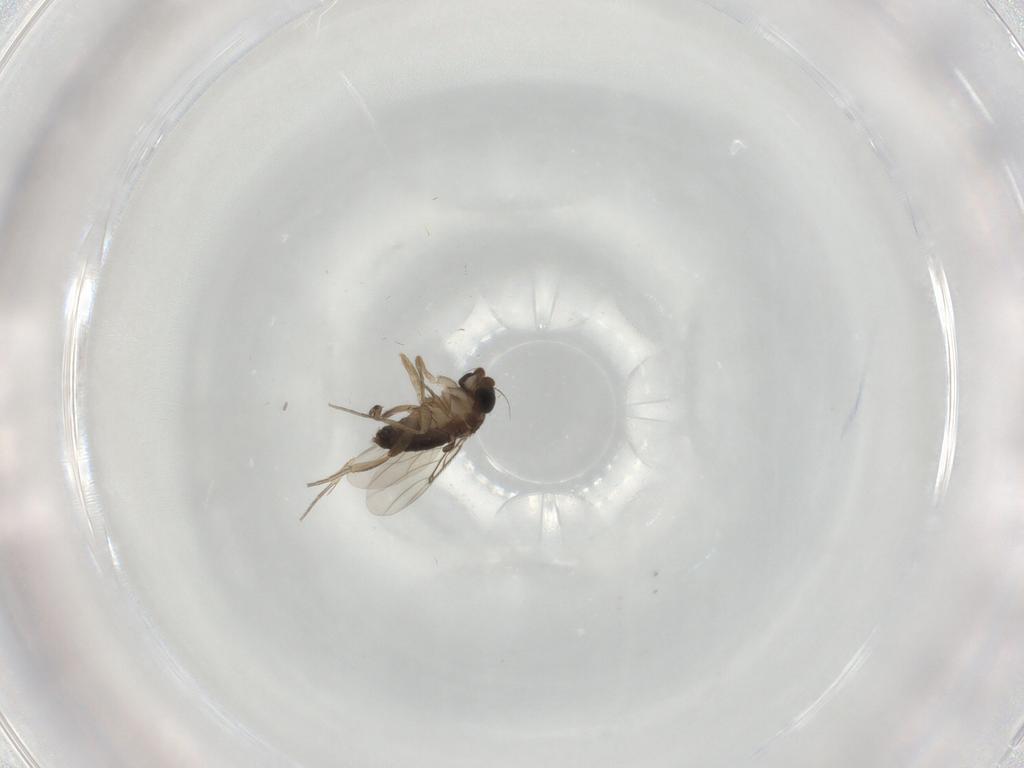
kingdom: Animalia
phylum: Arthropoda
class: Insecta
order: Diptera
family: Phoridae
